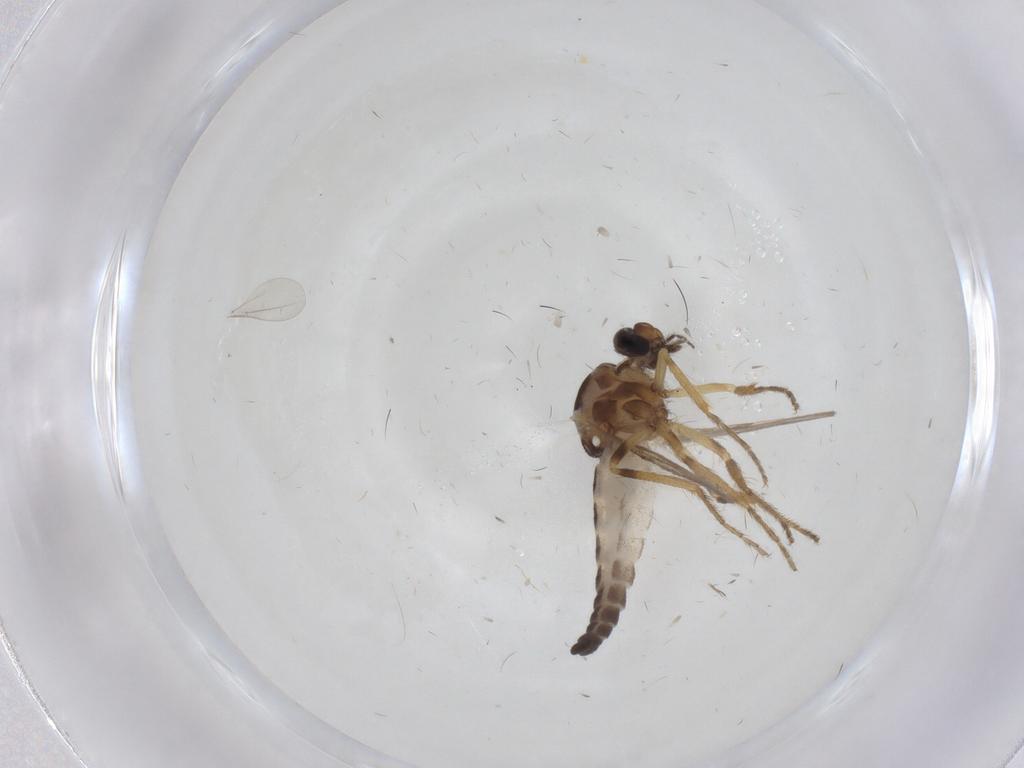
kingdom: Animalia
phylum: Arthropoda
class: Insecta
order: Diptera
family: Ceratopogonidae
